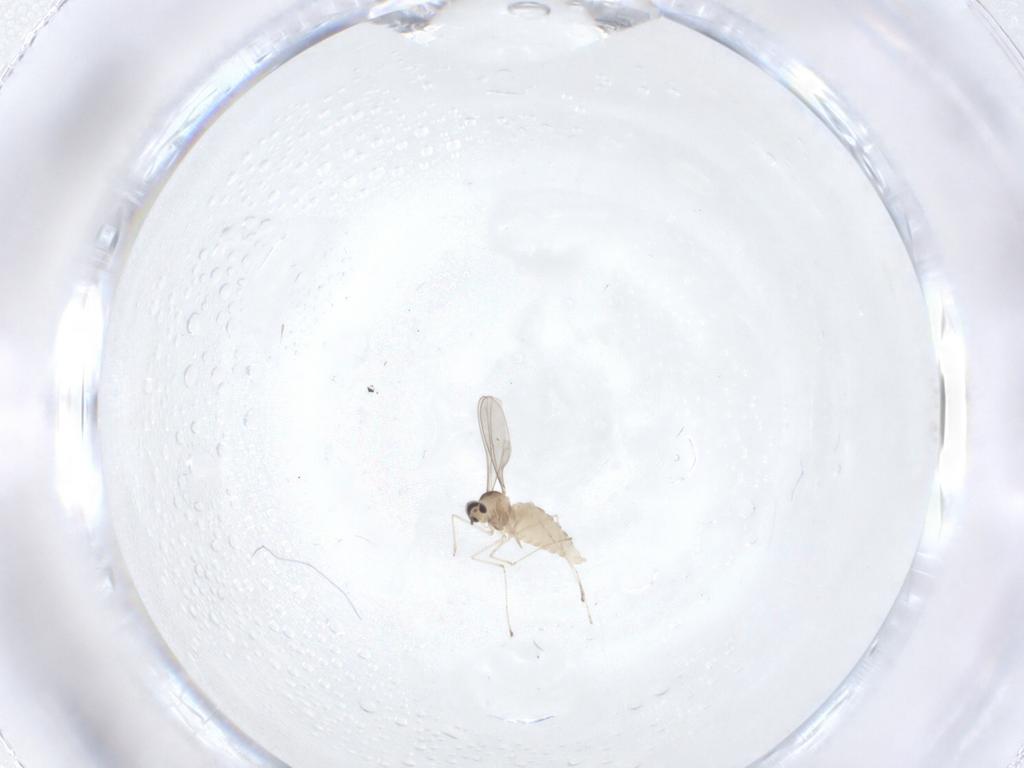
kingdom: Animalia
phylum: Arthropoda
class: Insecta
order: Diptera
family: Cecidomyiidae
